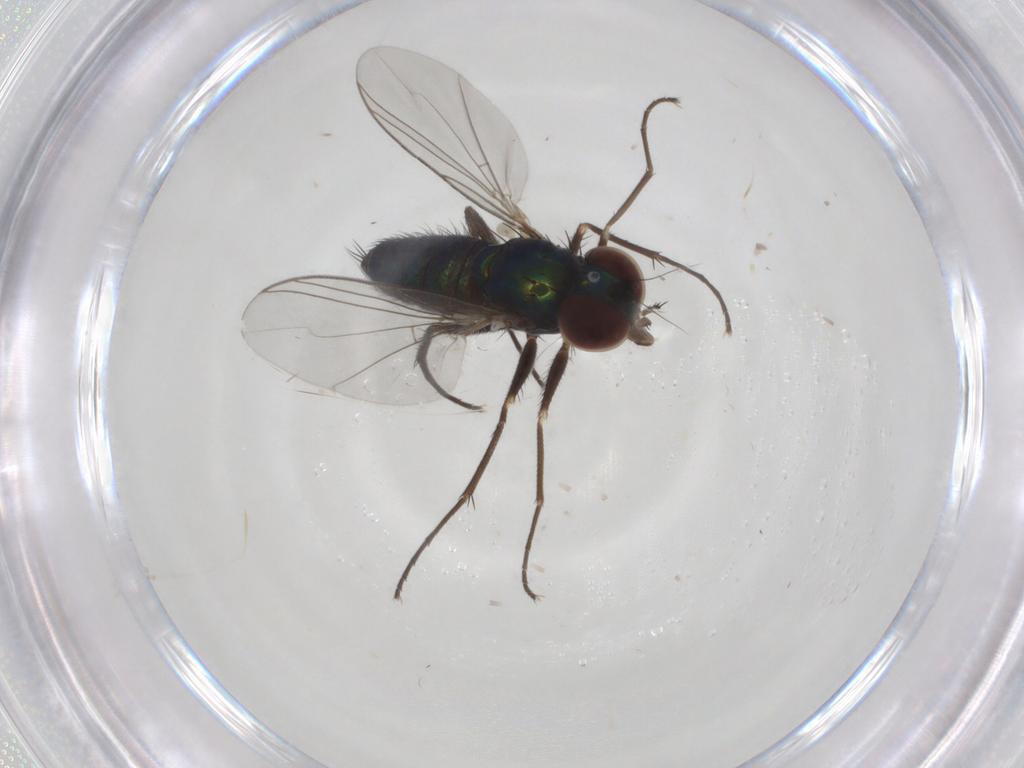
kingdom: Animalia
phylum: Arthropoda
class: Insecta
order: Diptera
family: Dolichopodidae
